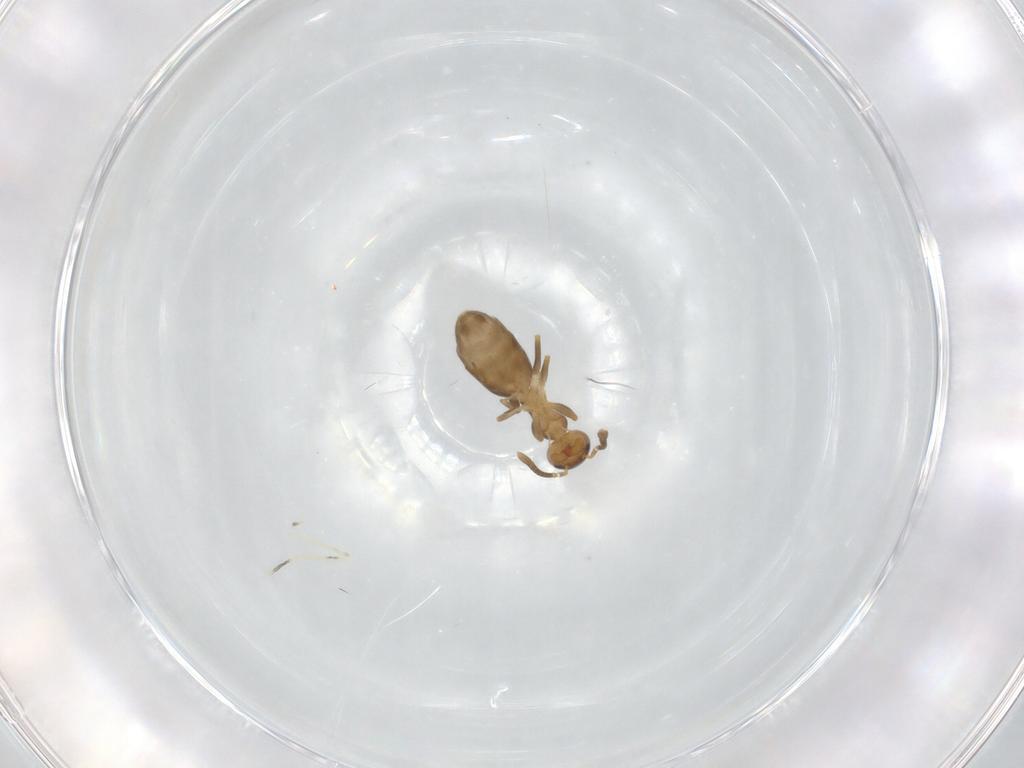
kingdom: Animalia
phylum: Arthropoda
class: Insecta
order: Hymenoptera
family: Formicidae
